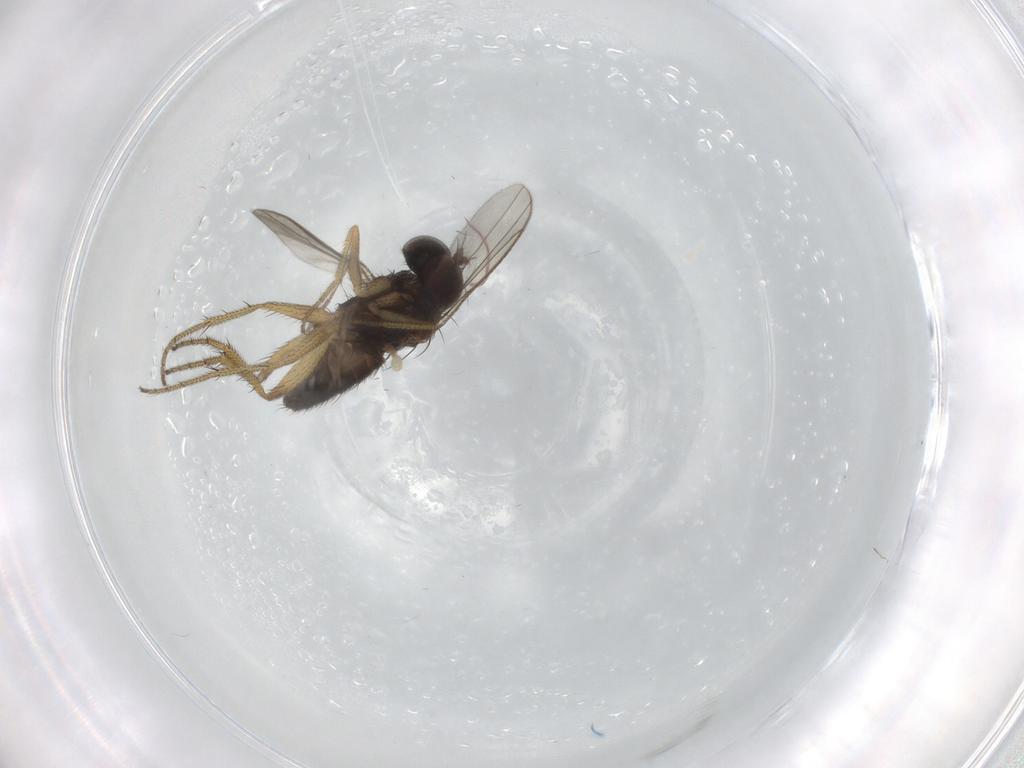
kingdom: Animalia
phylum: Arthropoda
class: Insecta
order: Diptera
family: Dolichopodidae
